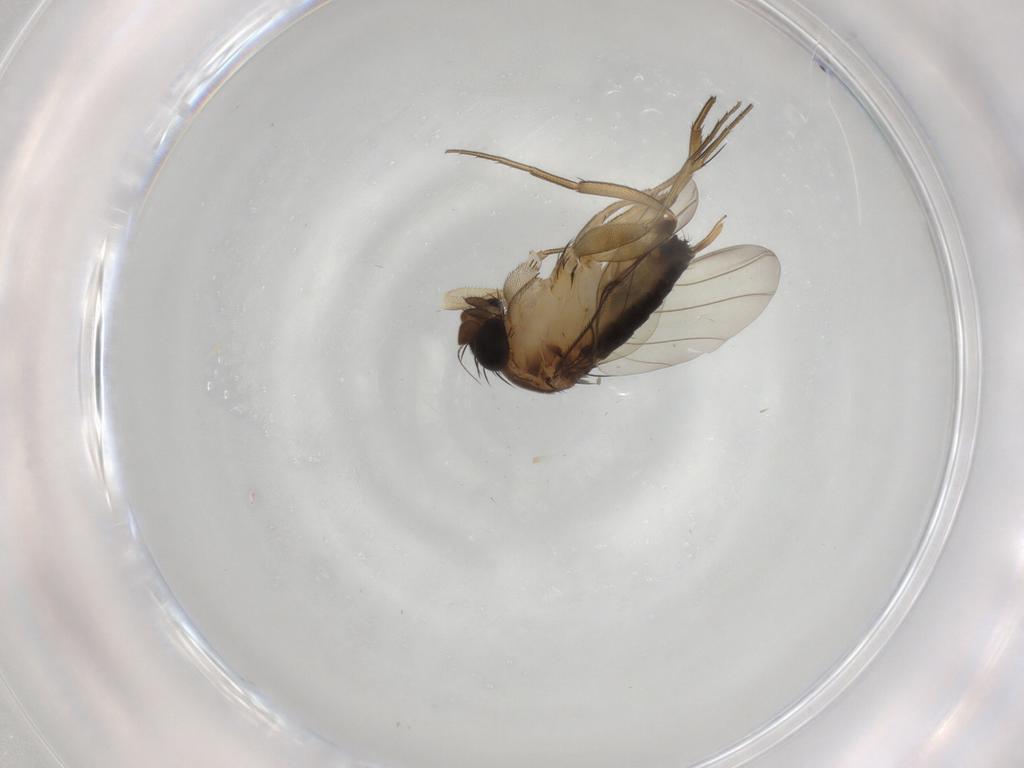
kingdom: Animalia
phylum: Arthropoda
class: Insecta
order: Diptera
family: Phoridae
